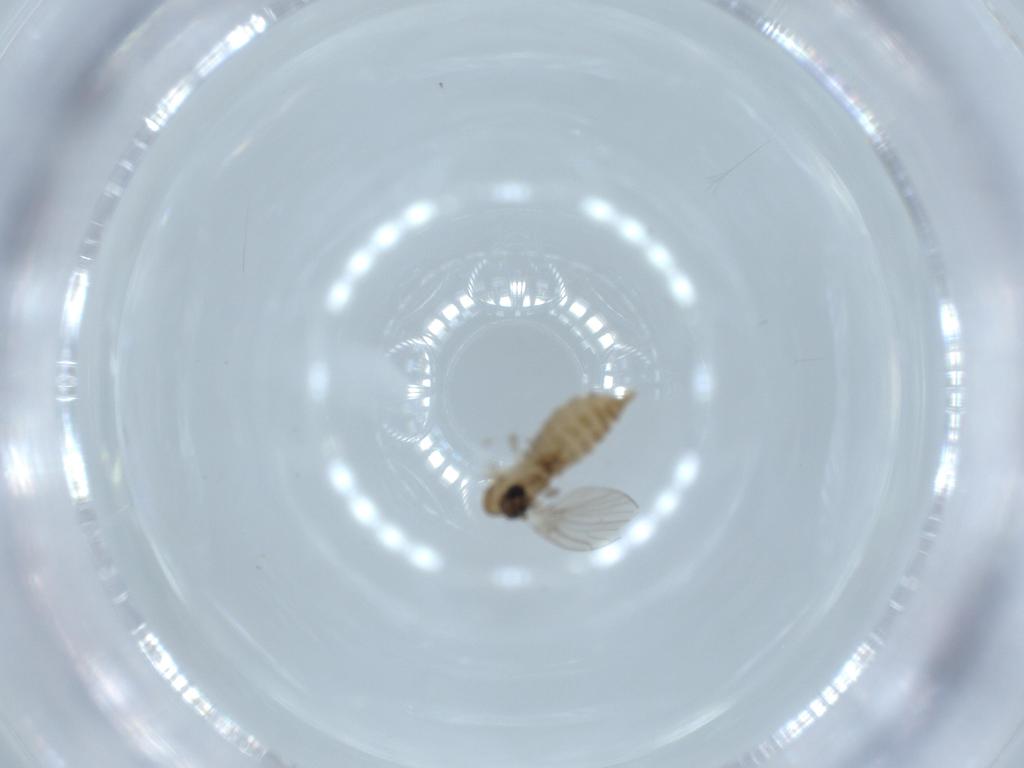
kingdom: Animalia
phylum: Arthropoda
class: Insecta
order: Diptera
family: Psychodidae
